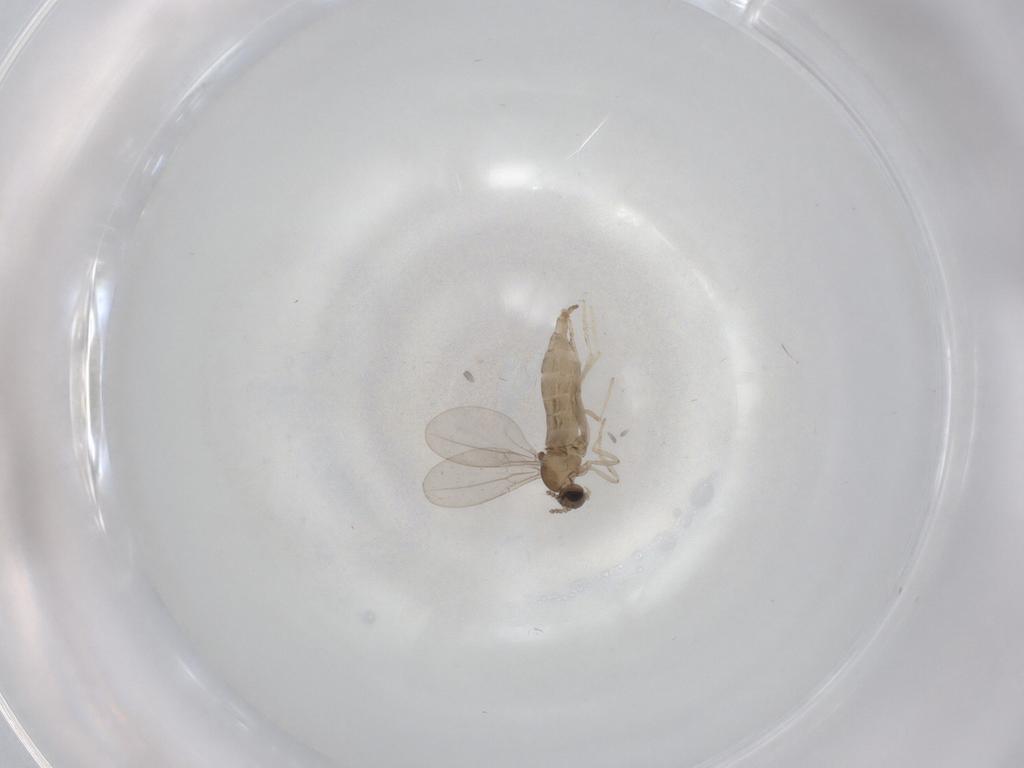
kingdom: Animalia
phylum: Arthropoda
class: Insecta
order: Diptera
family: Cecidomyiidae
